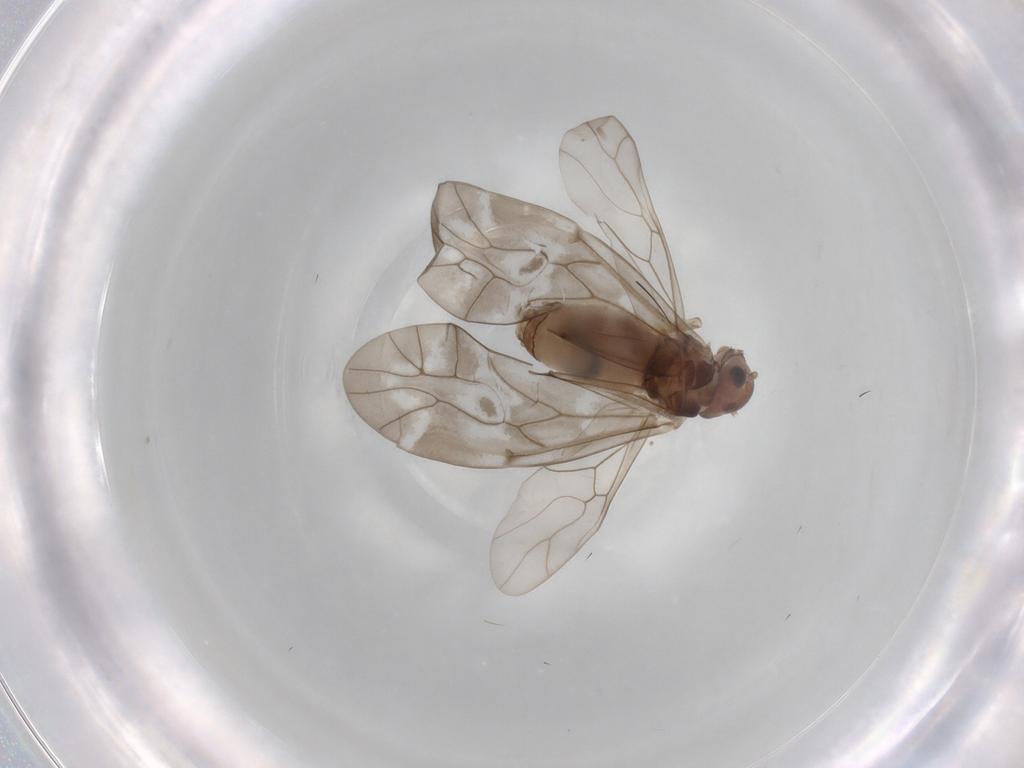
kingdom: Animalia
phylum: Arthropoda
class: Insecta
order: Psocodea
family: Peripsocidae
